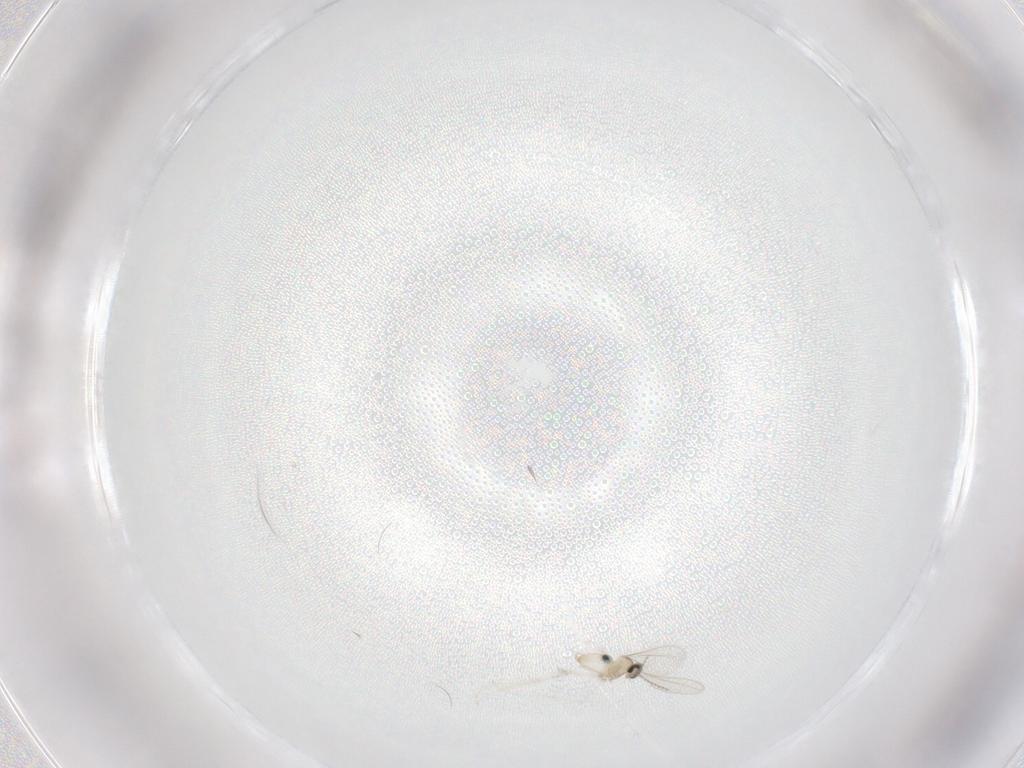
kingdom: Animalia
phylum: Arthropoda
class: Insecta
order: Diptera
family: Cecidomyiidae
